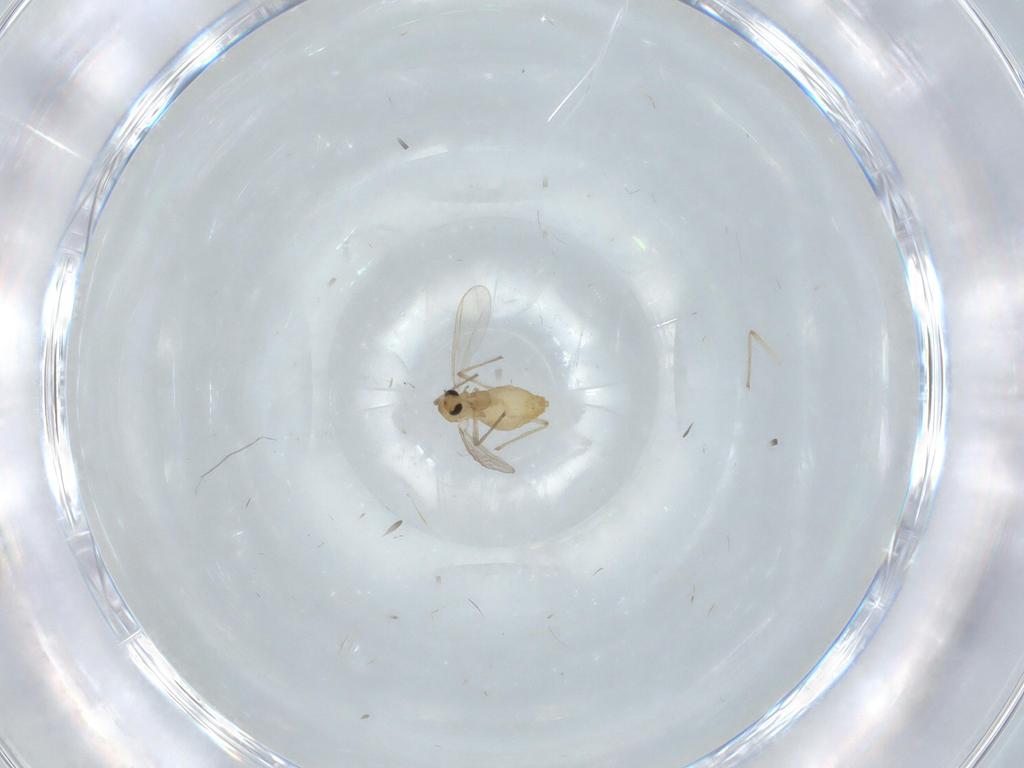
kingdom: Animalia
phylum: Arthropoda
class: Insecta
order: Diptera
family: Chironomidae
